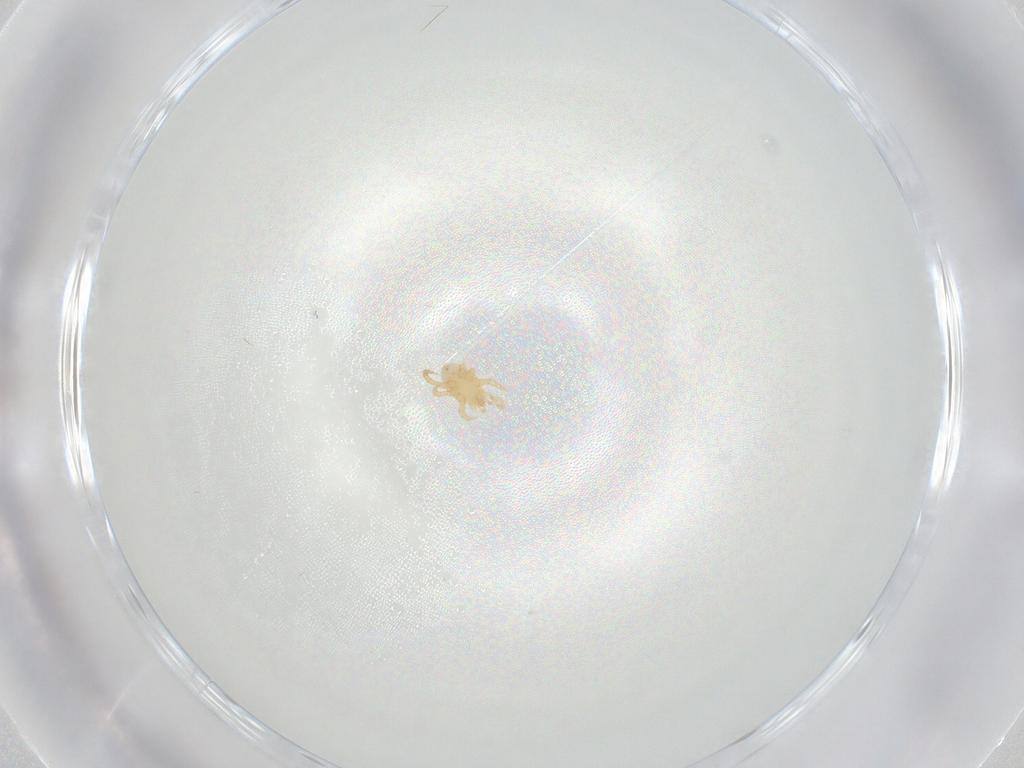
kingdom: Animalia
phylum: Arthropoda
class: Arachnida
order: Mesostigmata
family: Parasitidae
